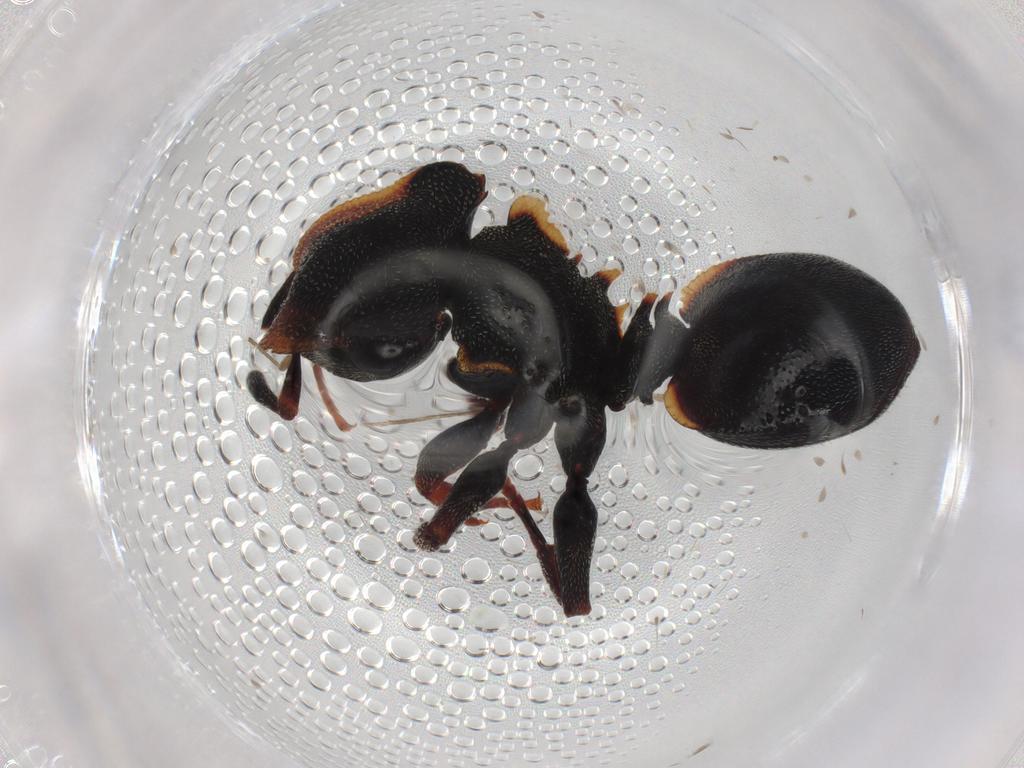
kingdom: Animalia
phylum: Arthropoda
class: Insecta
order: Hymenoptera
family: Formicidae
